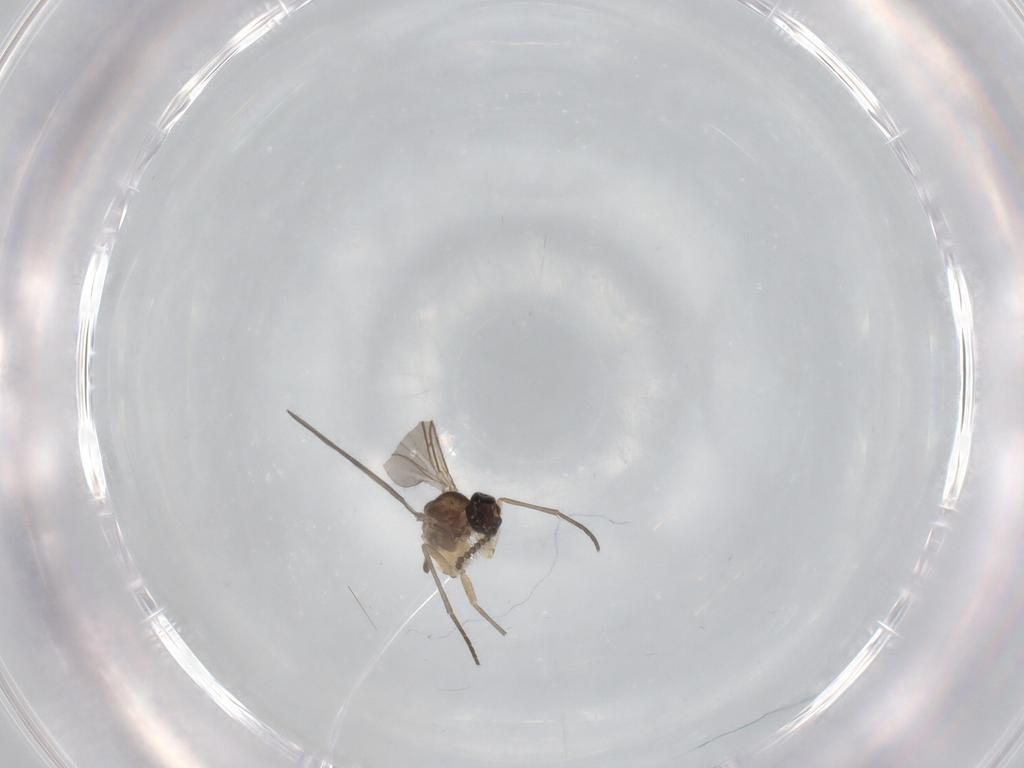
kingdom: Animalia
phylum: Arthropoda
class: Insecta
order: Diptera
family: Sciaridae
